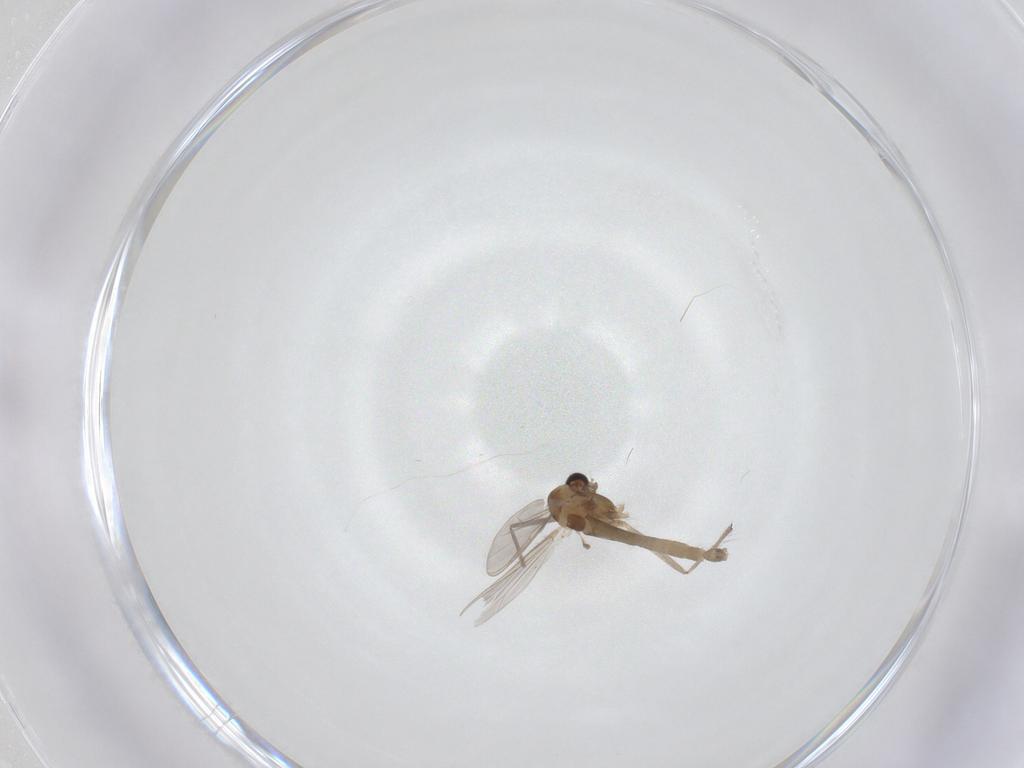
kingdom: Animalia
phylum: Arthropoda
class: Insecta
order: Diptera
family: Chironomidae
